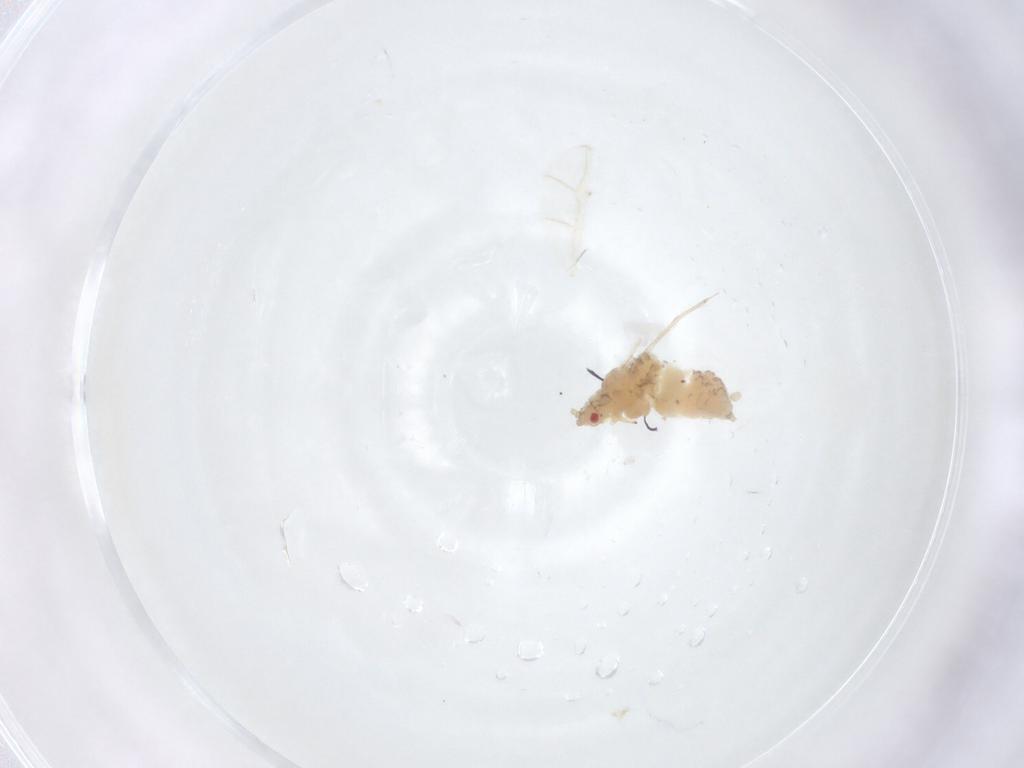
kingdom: Animalia
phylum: Arthropoda
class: Insecta
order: Hemiptera
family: Aphididae
